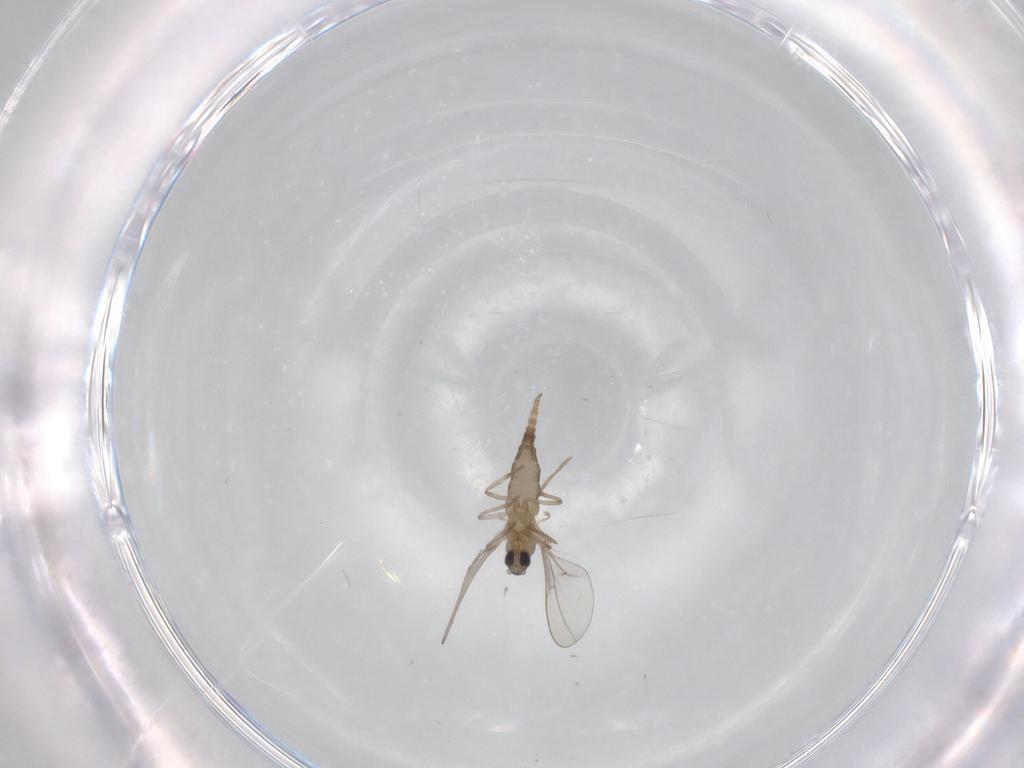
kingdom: Animalia
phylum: Arthropoda
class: Insecta
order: Diptera
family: Cecidomyiidae
